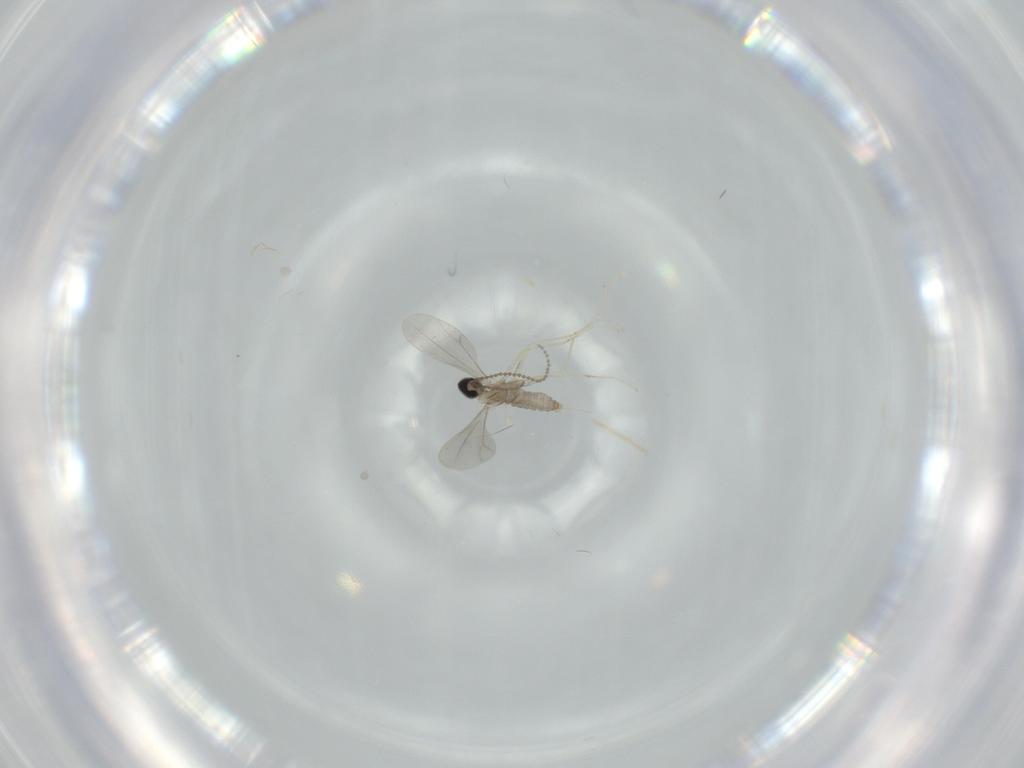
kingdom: Animalia
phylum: Arthropoda
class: Insecta
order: Diptera
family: Cecidomyiidae
